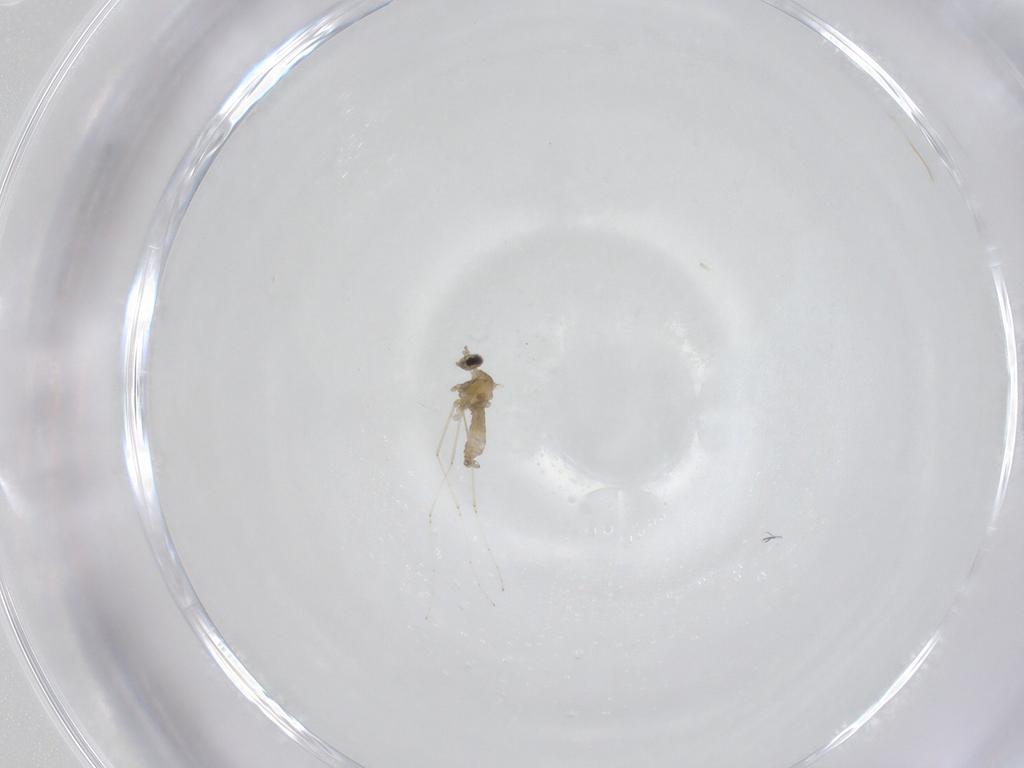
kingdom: Animalia
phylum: Arthropoda
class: Insecta
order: Diptera
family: Cecidomyiidae
